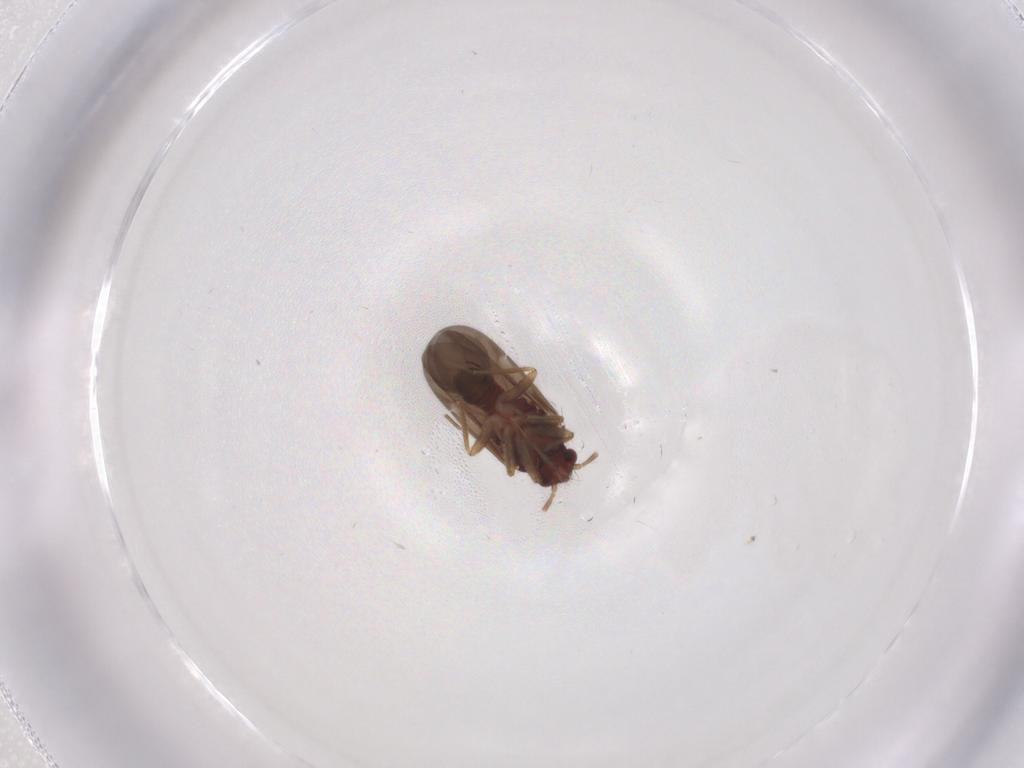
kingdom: Animalia
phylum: Arthropoda
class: Insecta
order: Hemiptera
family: Ceratocombidae
